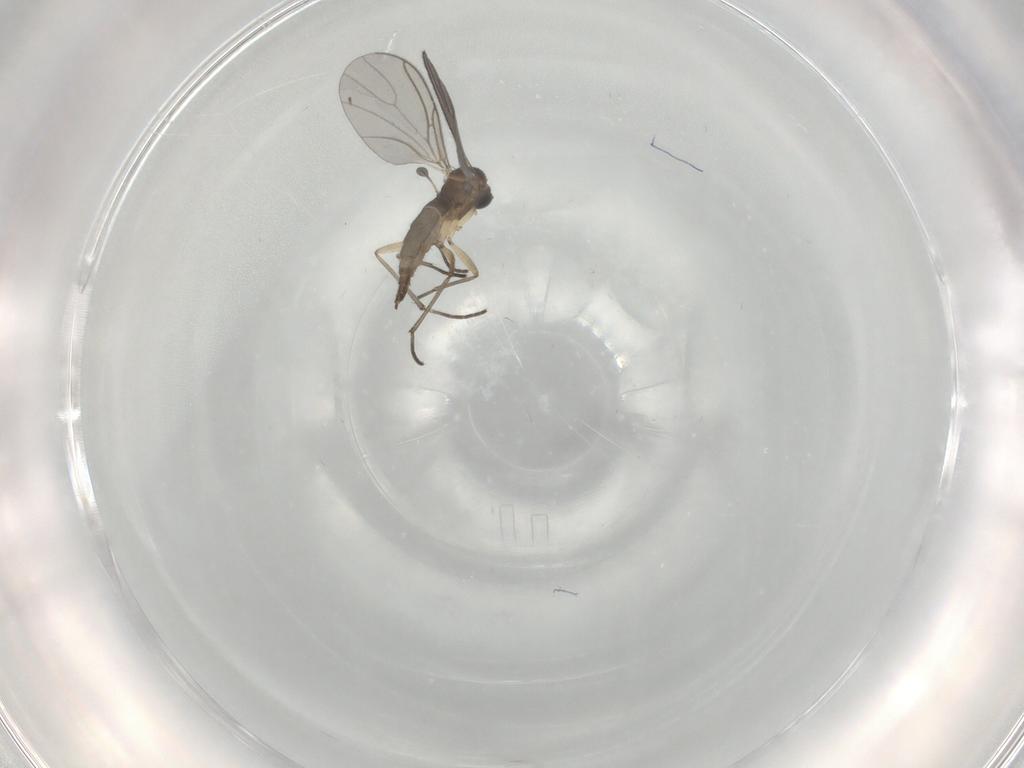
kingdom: Animalia
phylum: Arthropoda
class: Insecta
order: Diptera
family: Sciaridae
